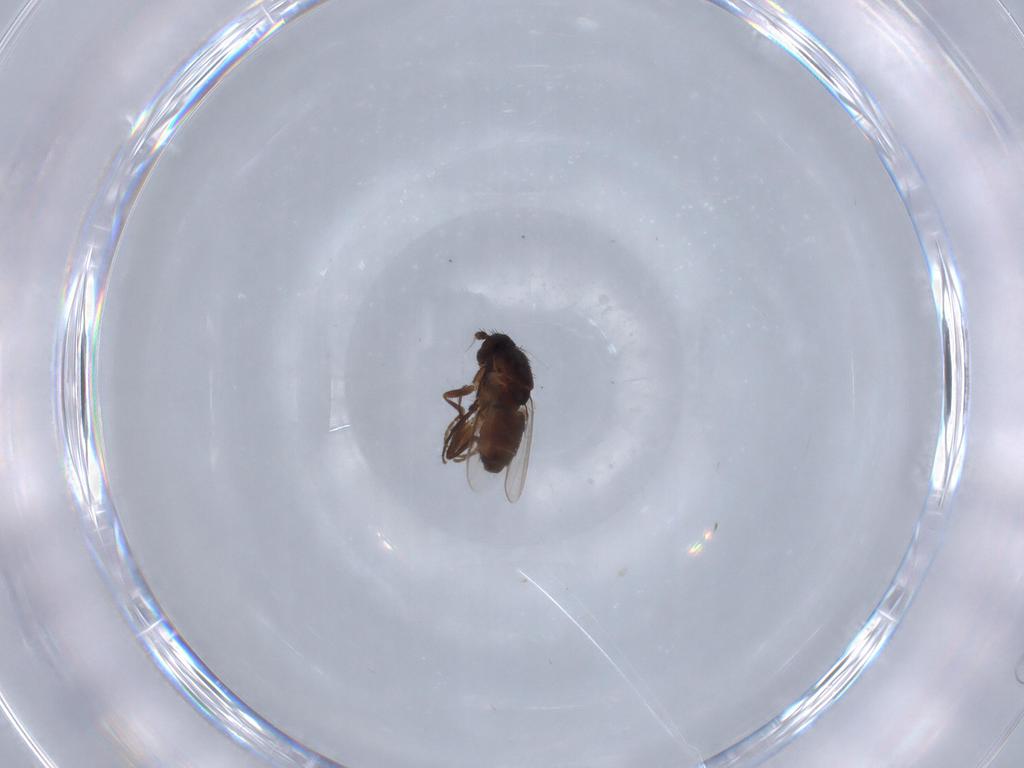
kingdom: Animalia
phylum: Arthropoda
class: Insecta
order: Diptera
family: Sphaeroceridae
